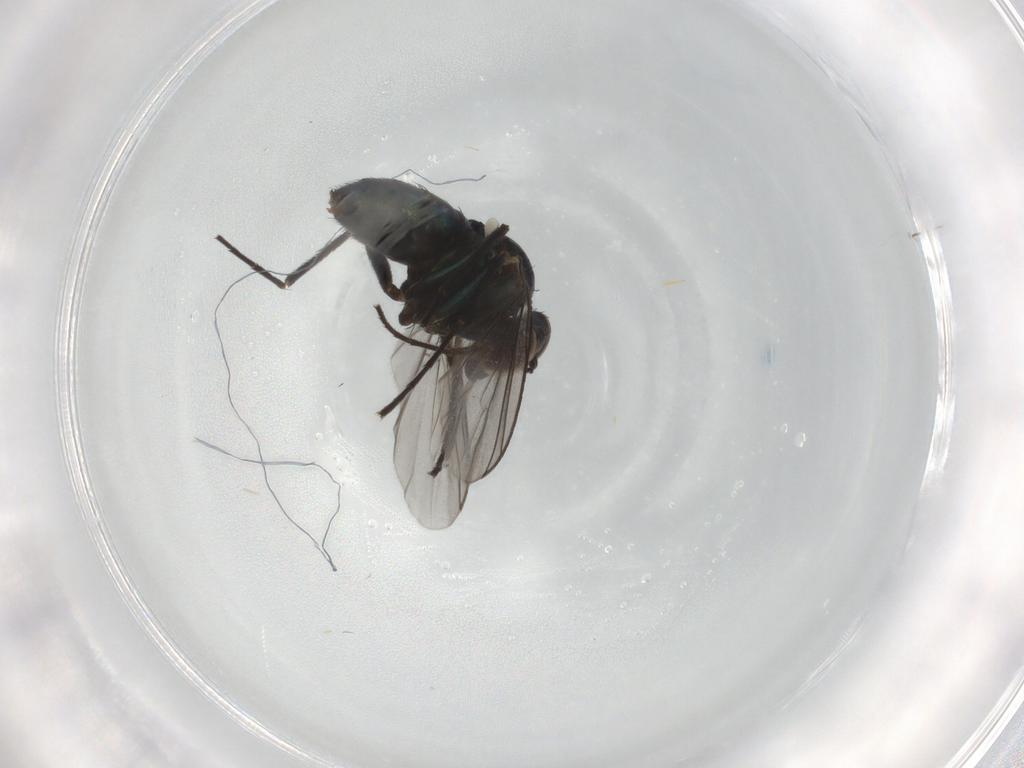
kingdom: Animalia
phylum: Arthropoda
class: Insecta
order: Diptera
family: Dolichopodidae
